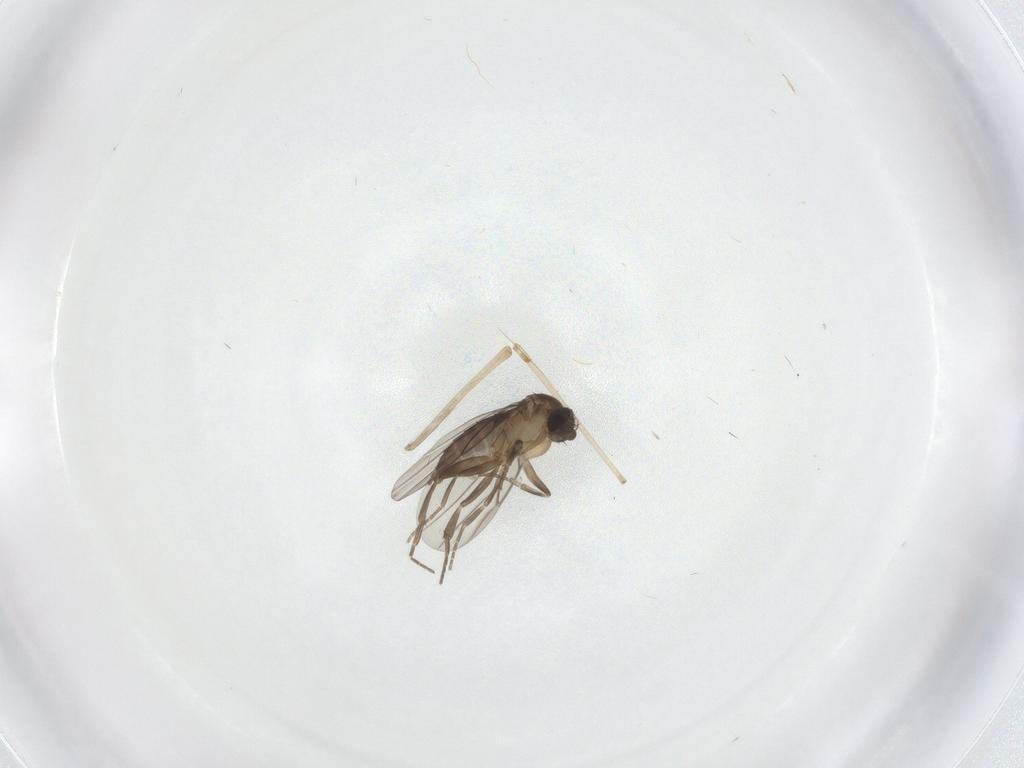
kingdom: Animalia
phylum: Arthropoda
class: Insecta
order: Diptera
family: Phoridae
